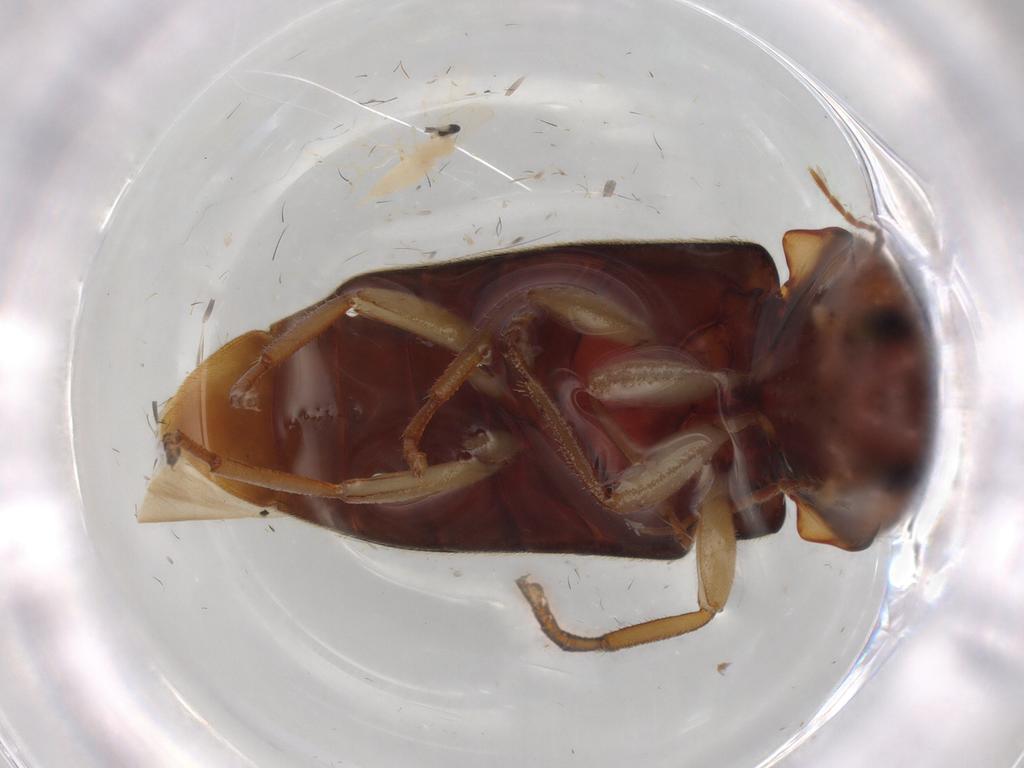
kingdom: Animalia
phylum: Arthropoda
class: Insecta
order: Coleoptera
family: Elateridae
